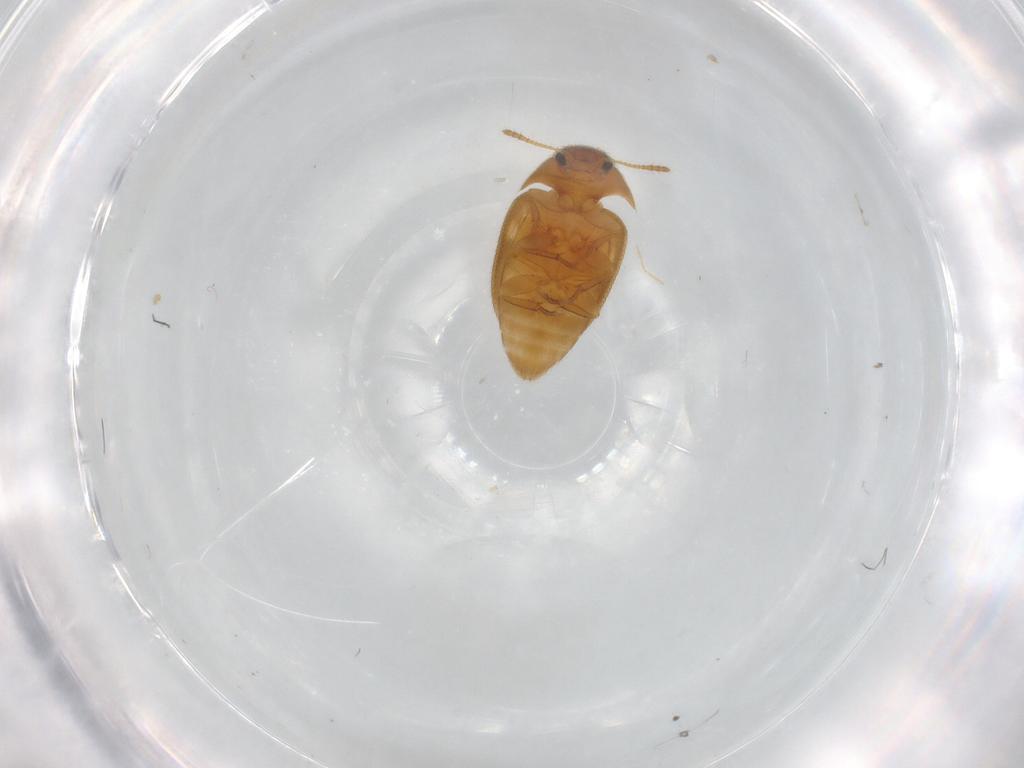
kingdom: Animalia
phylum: Arthropoda
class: Insecta
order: Coleoptera
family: Mycetophagidae
